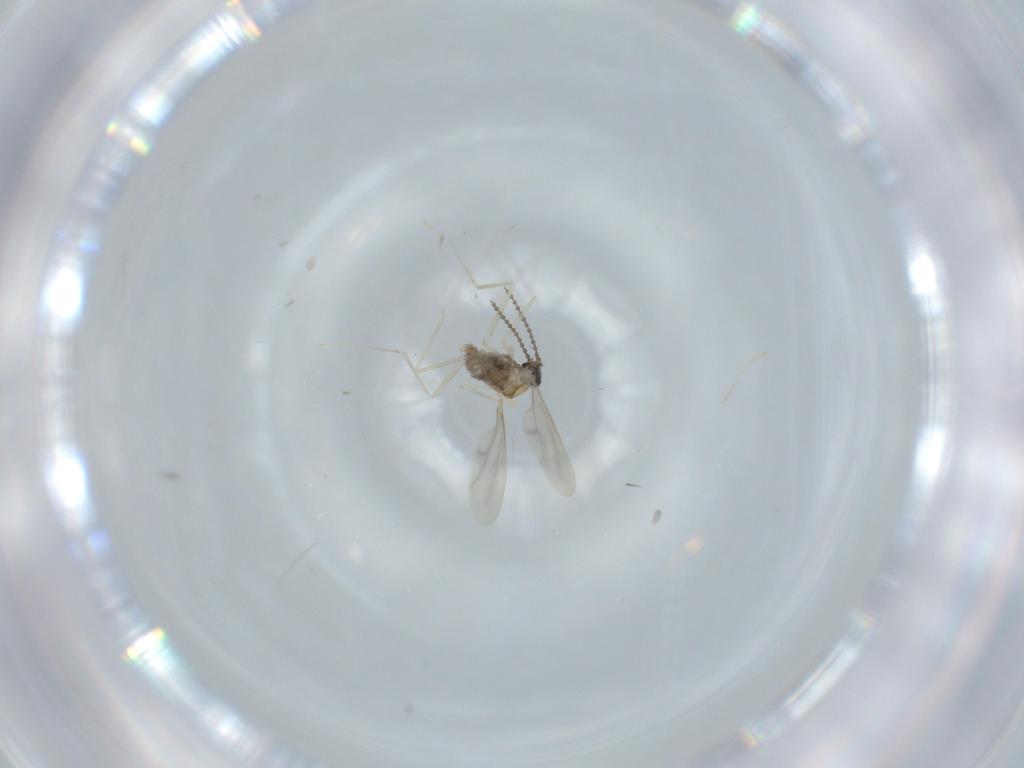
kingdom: Animalia
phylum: Arthropoda
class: Insecta
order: Diptera
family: Cecidomyiidae
